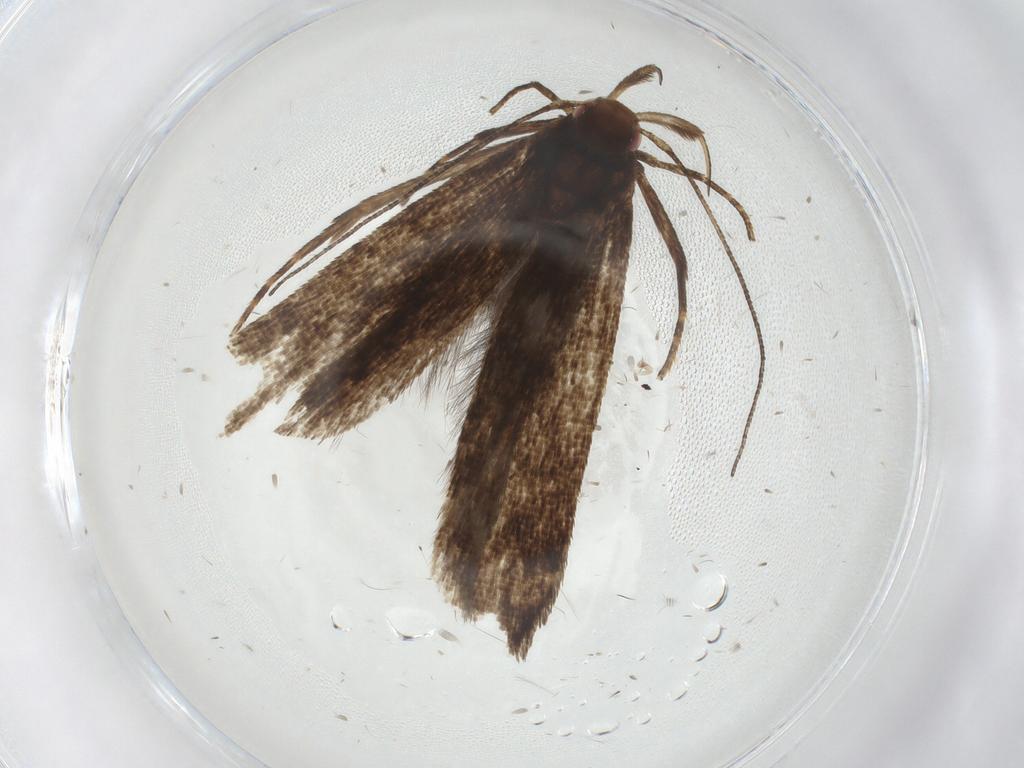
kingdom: Animalia
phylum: Arthropoda
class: Insecta
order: Lepidoptera
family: Gelechiidae
